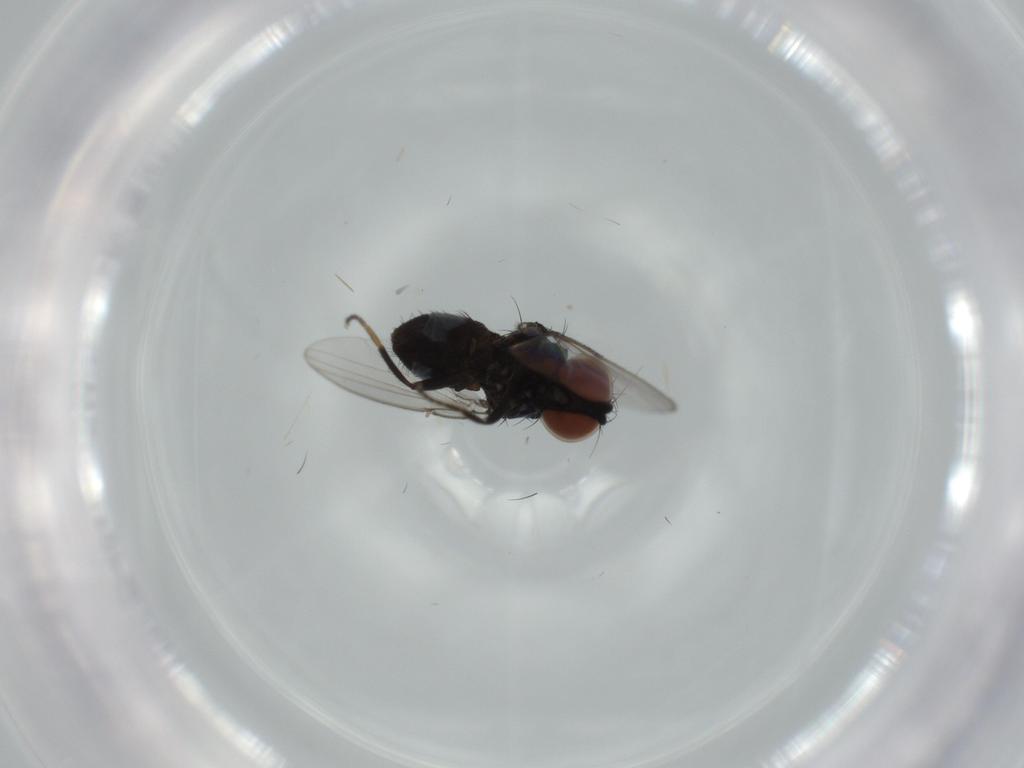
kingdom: Animalia
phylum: Arthropoda
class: Insecta
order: Diptera
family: Milichiidae
